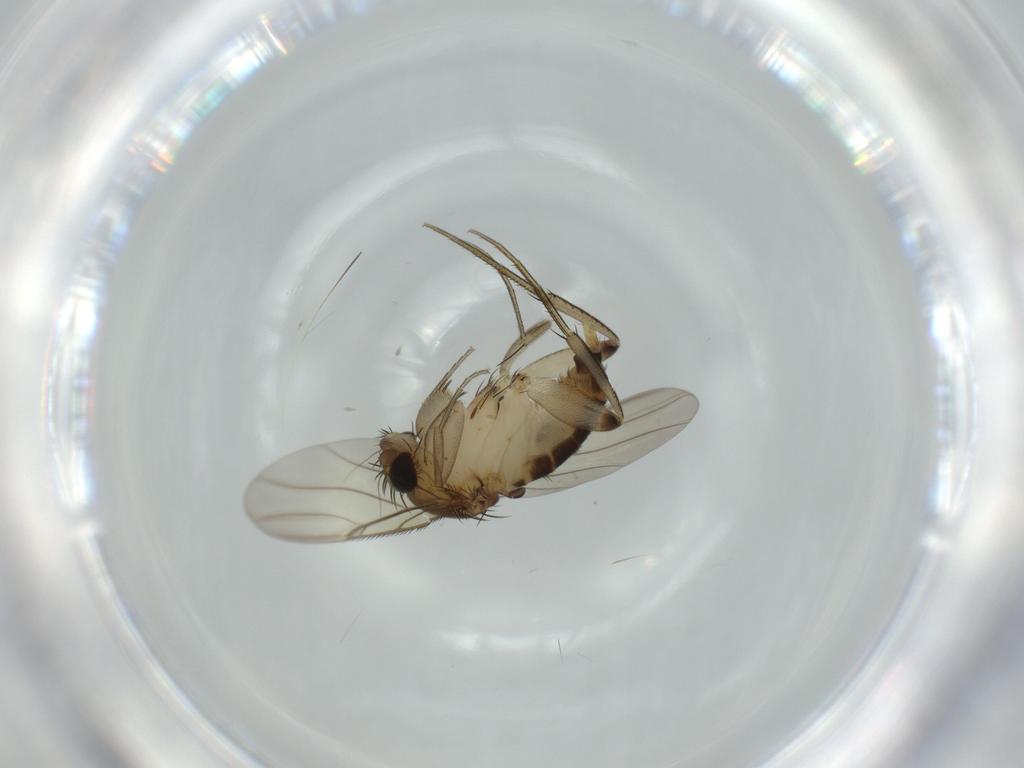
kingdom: Animalia
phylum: Arthropoda
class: Insecta
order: Diptera
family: Phoridae
